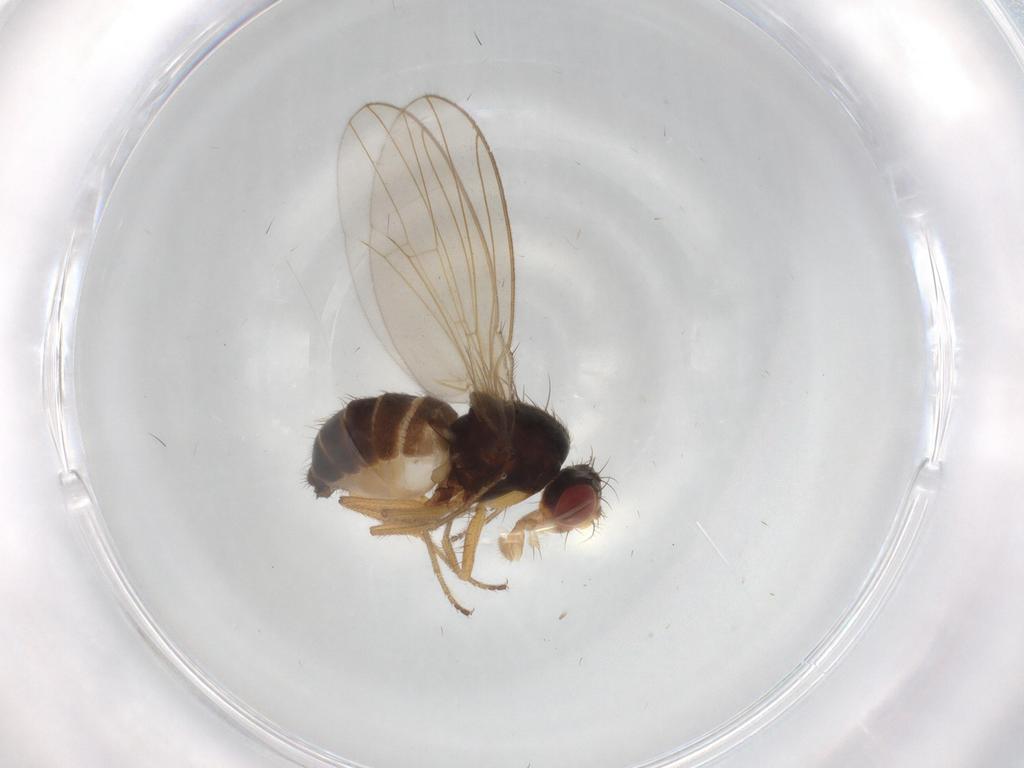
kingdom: Animalia
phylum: Arthropoda
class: Insecta
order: Diptera
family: Drosophilidae
